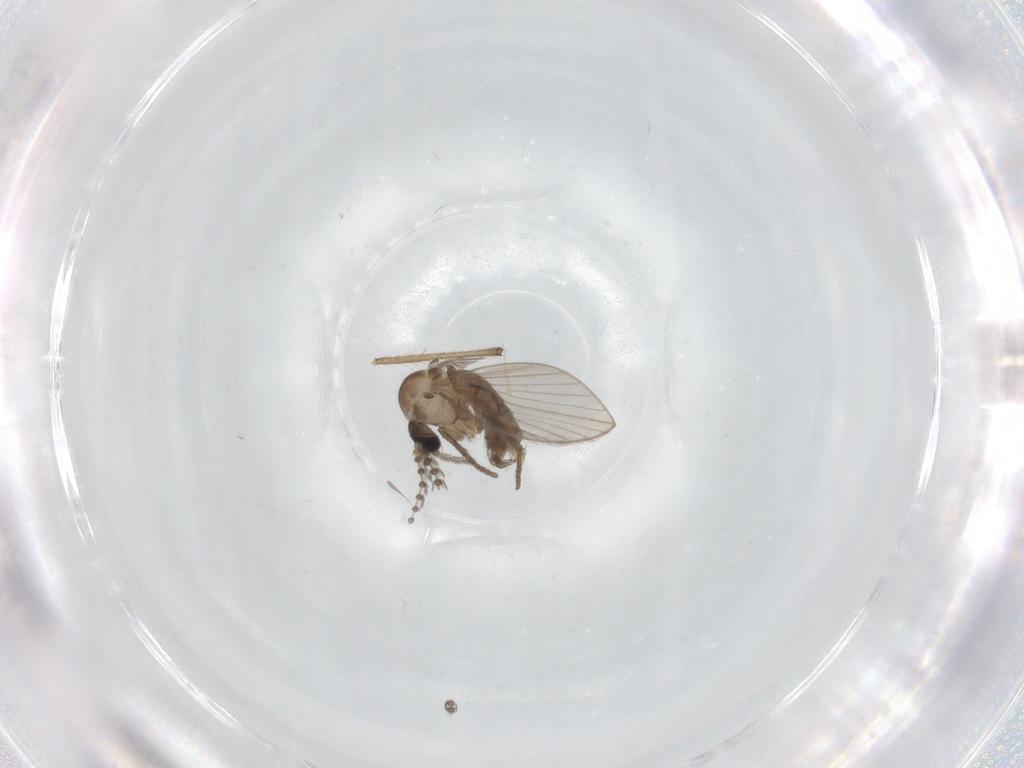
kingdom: Animalia
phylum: Arthropoda
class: Insecta
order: Diptera
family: Psychodidae
